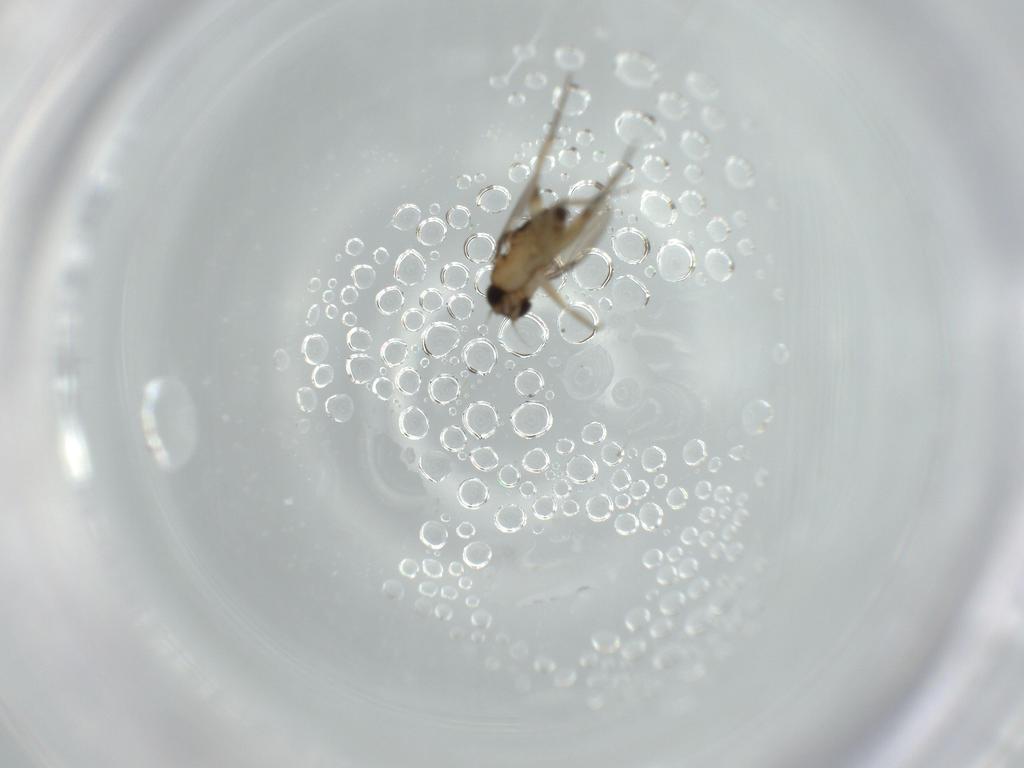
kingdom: Animalia
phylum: Arthropoda
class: Insecta
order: Diptera
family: Phoridae
